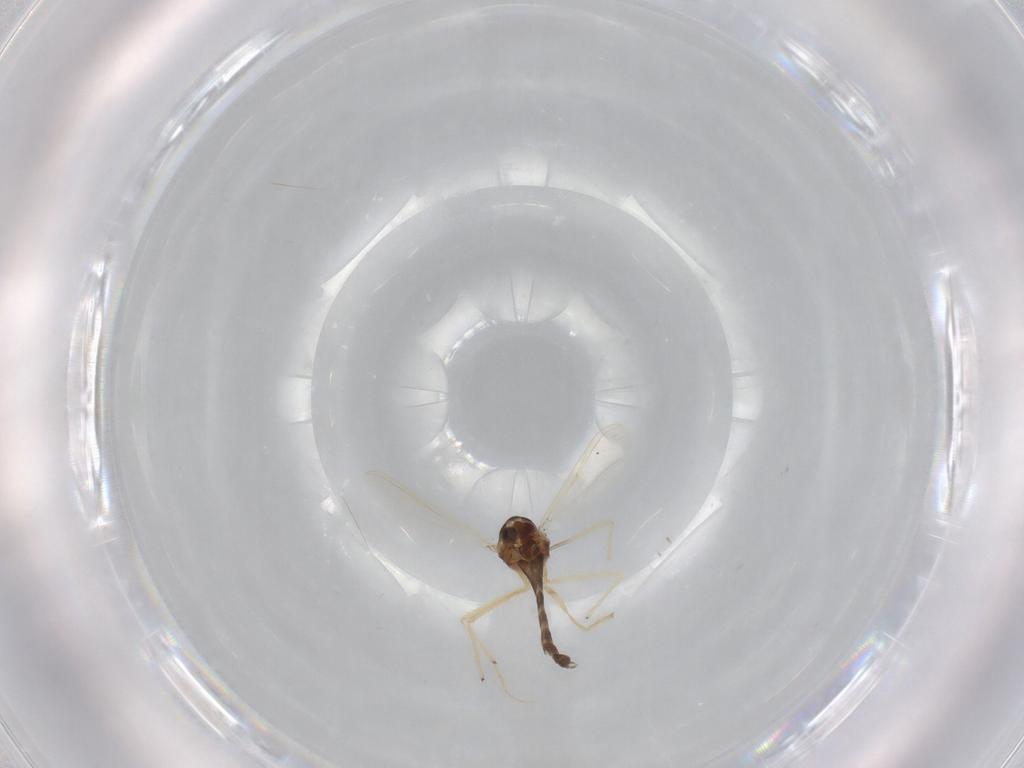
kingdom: Animalia
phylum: Arthropoda
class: Insecta
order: Diptera
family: Chironomidae
